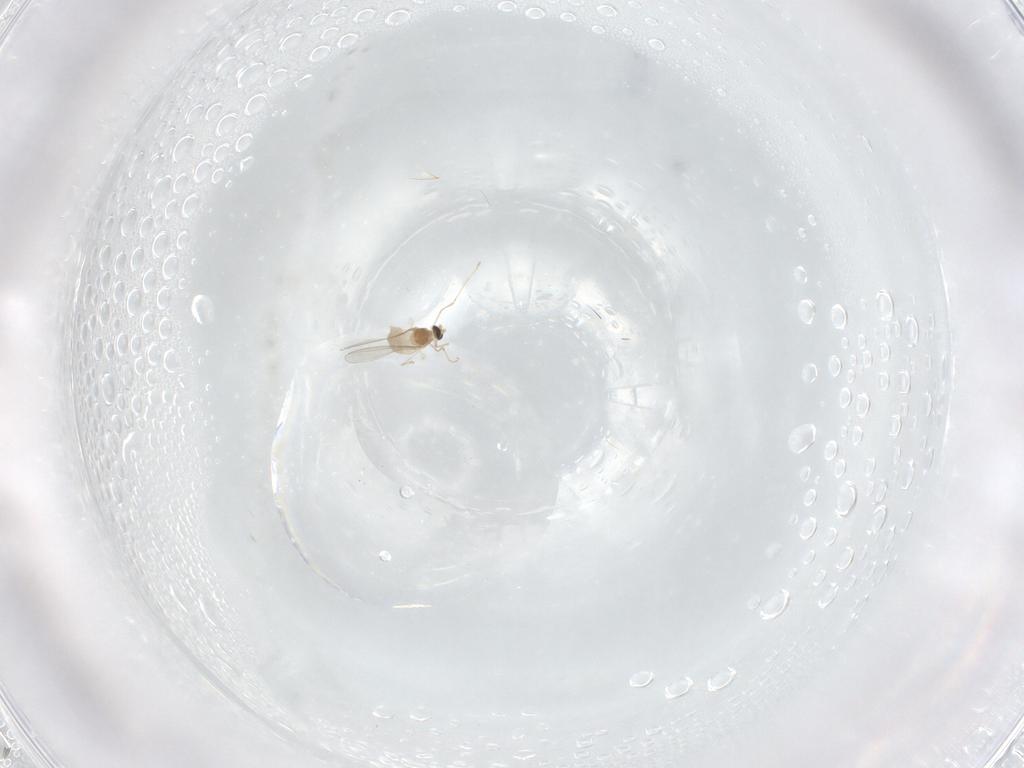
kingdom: Animalia
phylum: Arthropoda
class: Insecta
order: Diptera
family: Cecidomyiidae
